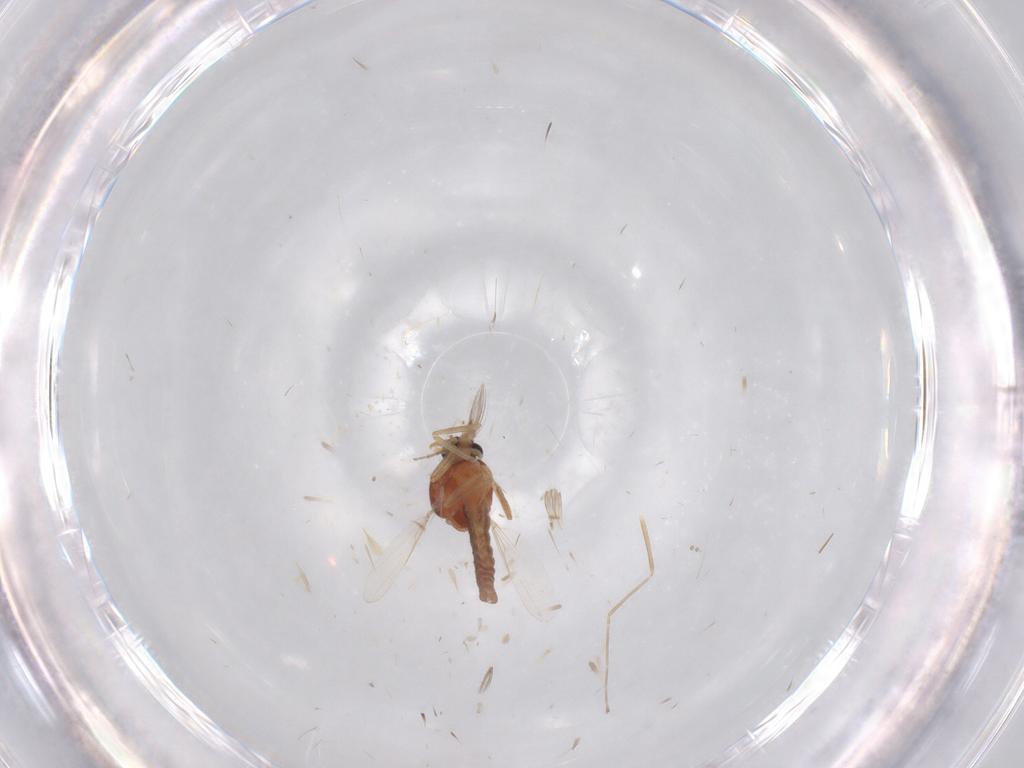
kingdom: Animalia
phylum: Arthropoda
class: Insecta
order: Diptera
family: Cecidomyiidae
